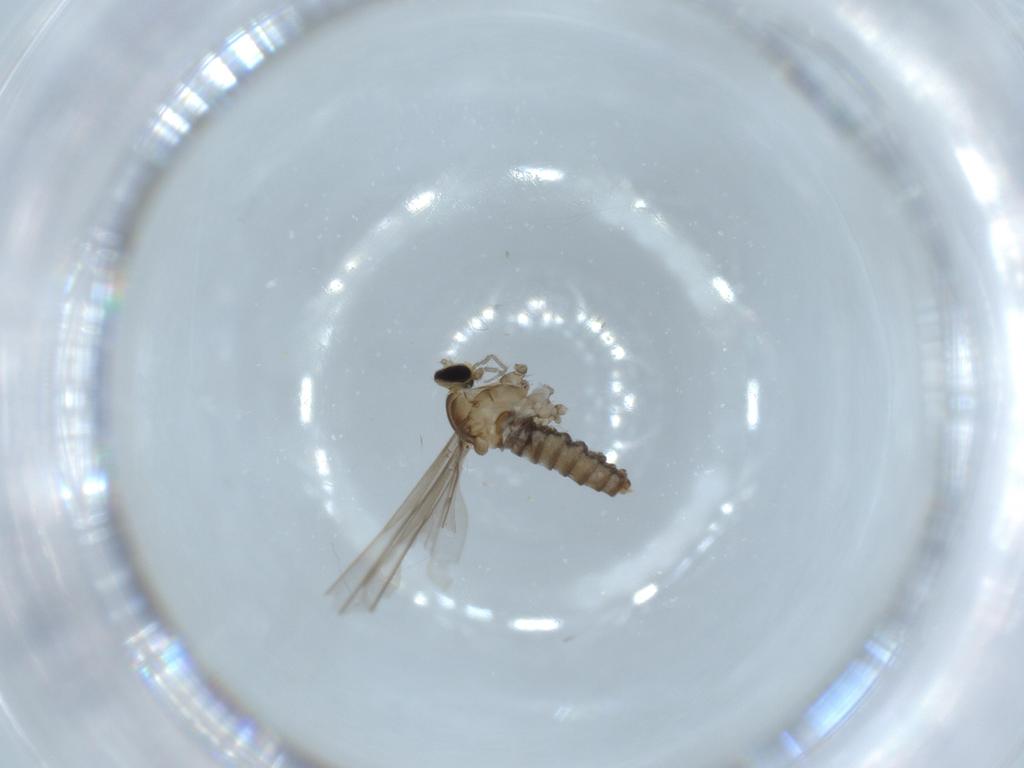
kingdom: Animalia
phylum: Arthropoda
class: Insecta
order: Diptera
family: Cecidomyiidae
